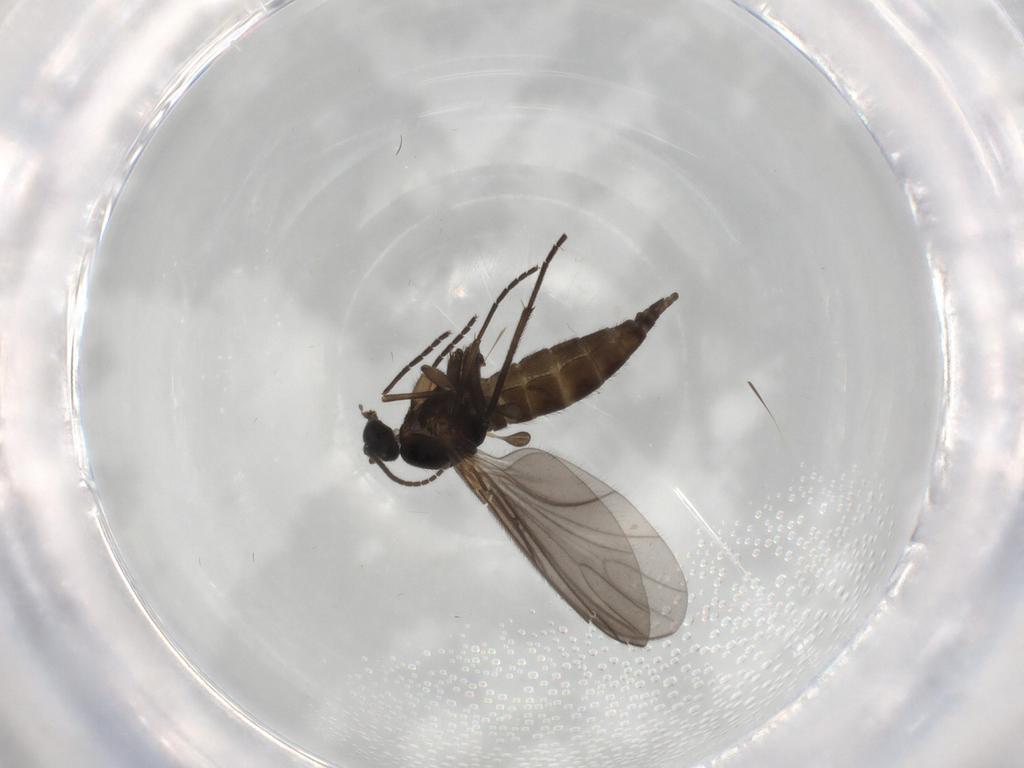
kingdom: Animalia
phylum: Arthropoda
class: Insecta
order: Diptera
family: Sciaridae
